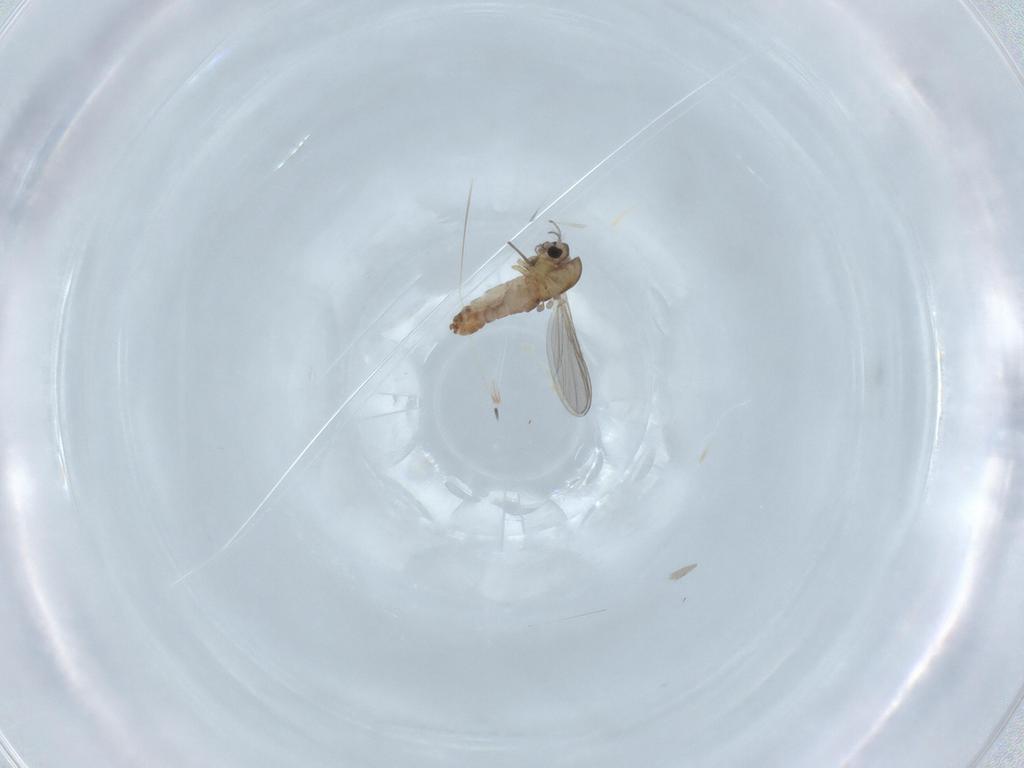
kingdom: Animalia
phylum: Arthropoda
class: Insecta
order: Diptera
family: Chironomidae
